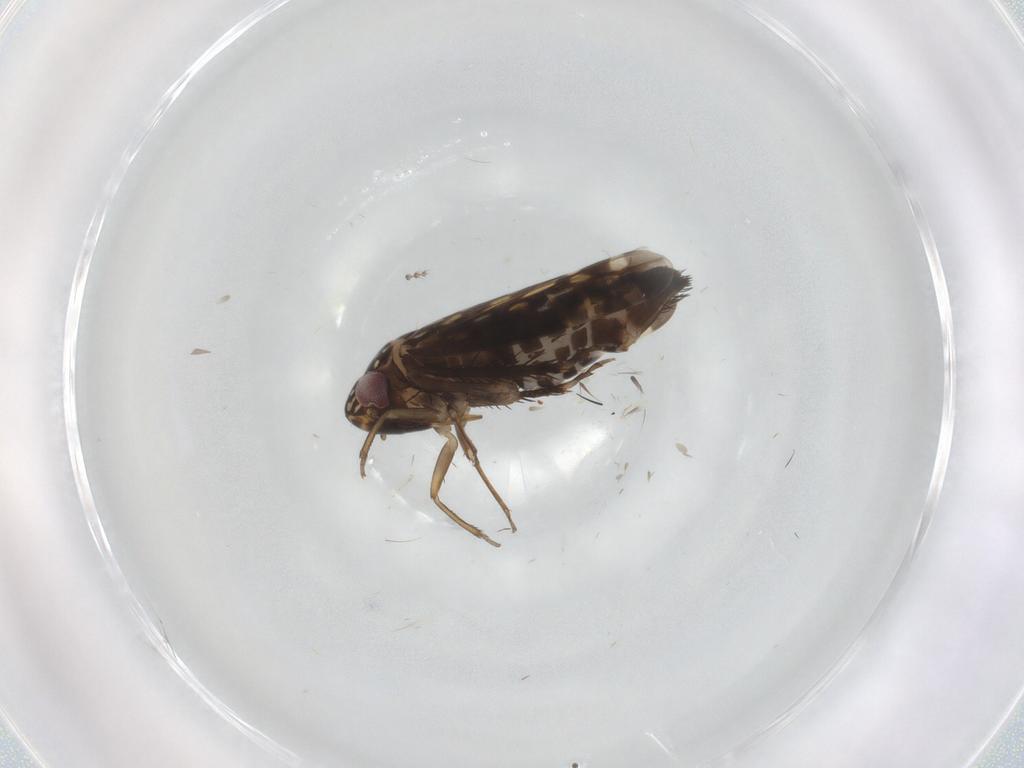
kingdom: Animalia
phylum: Arthropoda
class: Insecta
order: Hemiptera
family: Cicadellidae
